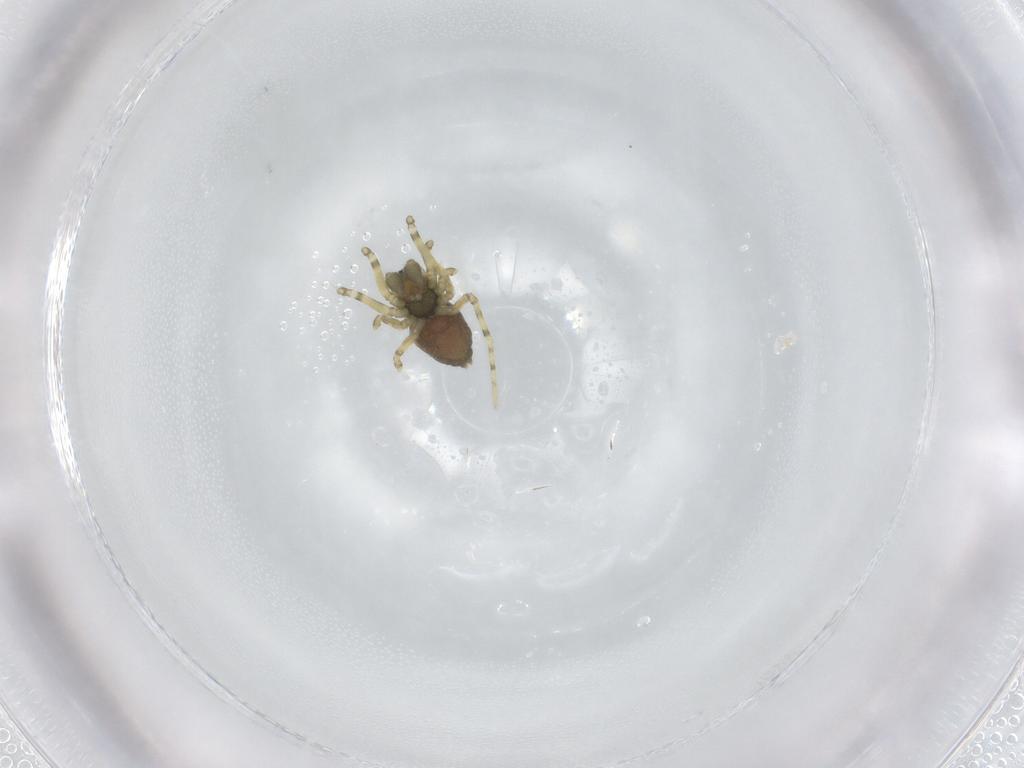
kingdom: Animalia
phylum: Arthropoda
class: Arachnida
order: Araneae
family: Linyphiidae
